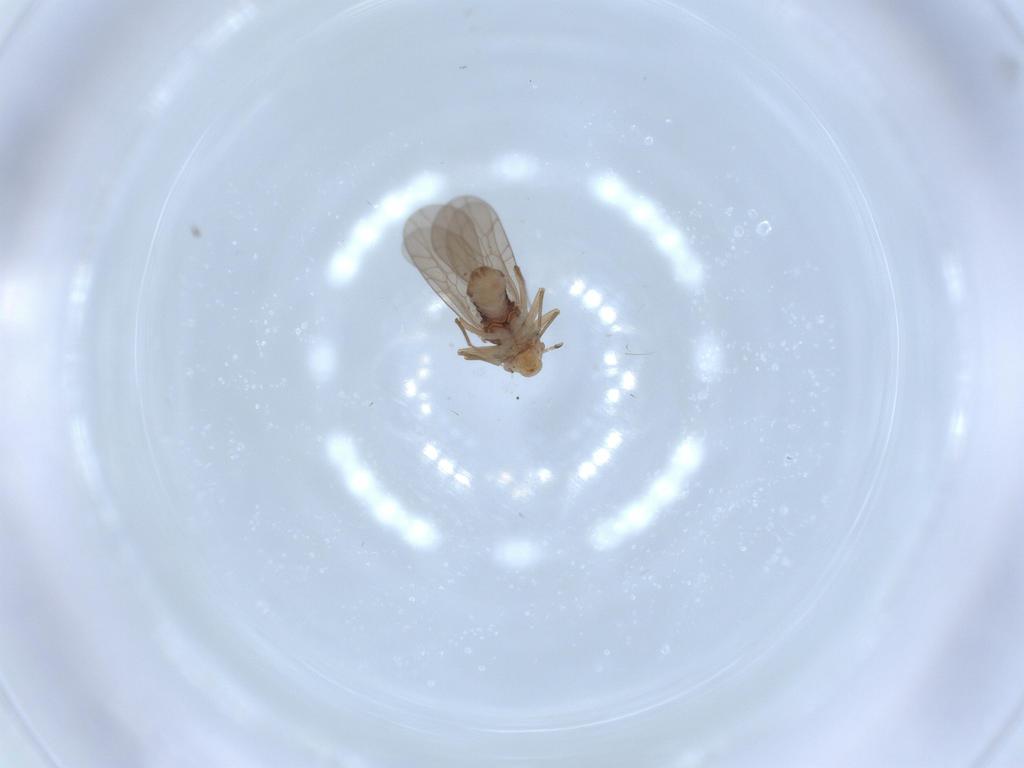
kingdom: Animalia
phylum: Arthropoda
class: Insecta
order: Psocodea
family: Lepidopsocidae
